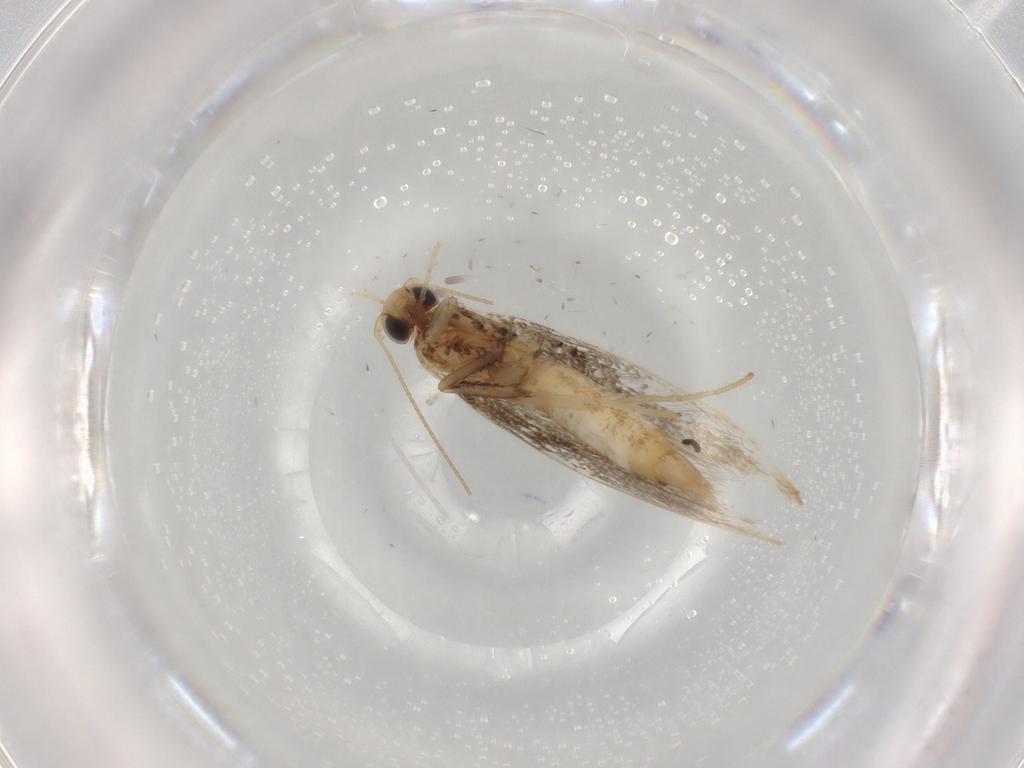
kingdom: Animalia
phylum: Arthropoda
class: Insecta
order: Lepidoptera
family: Gracillariidae
